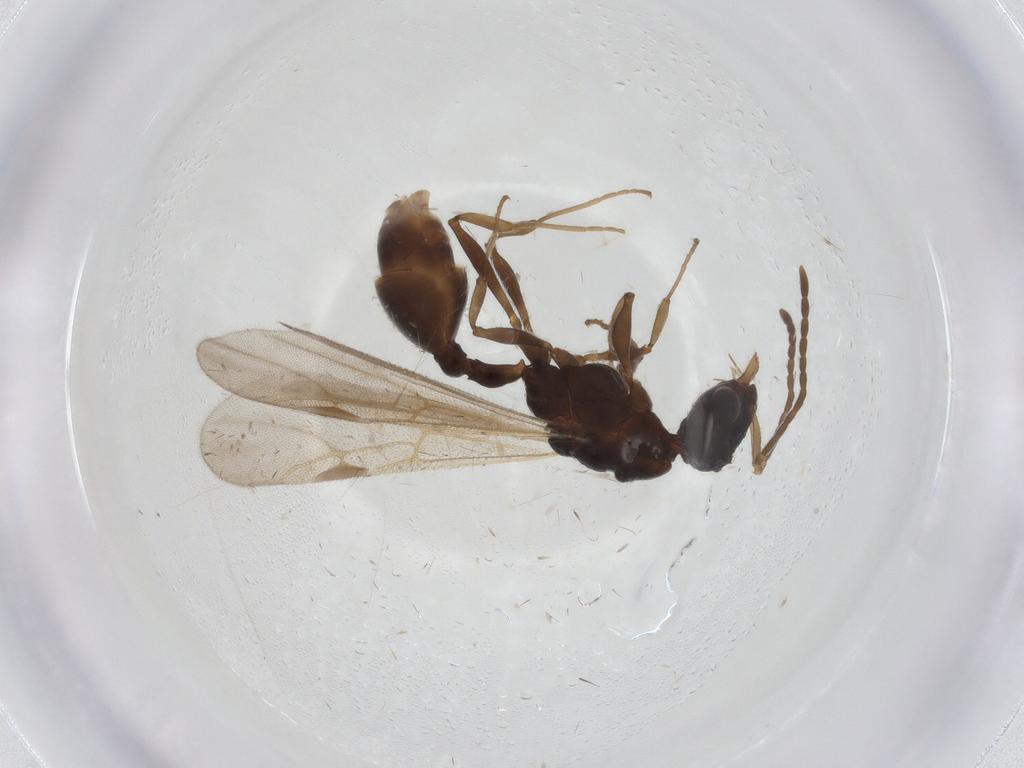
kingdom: Animalia
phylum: Arthropoda
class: Insecta
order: Hymenoptera
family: Formicidae
